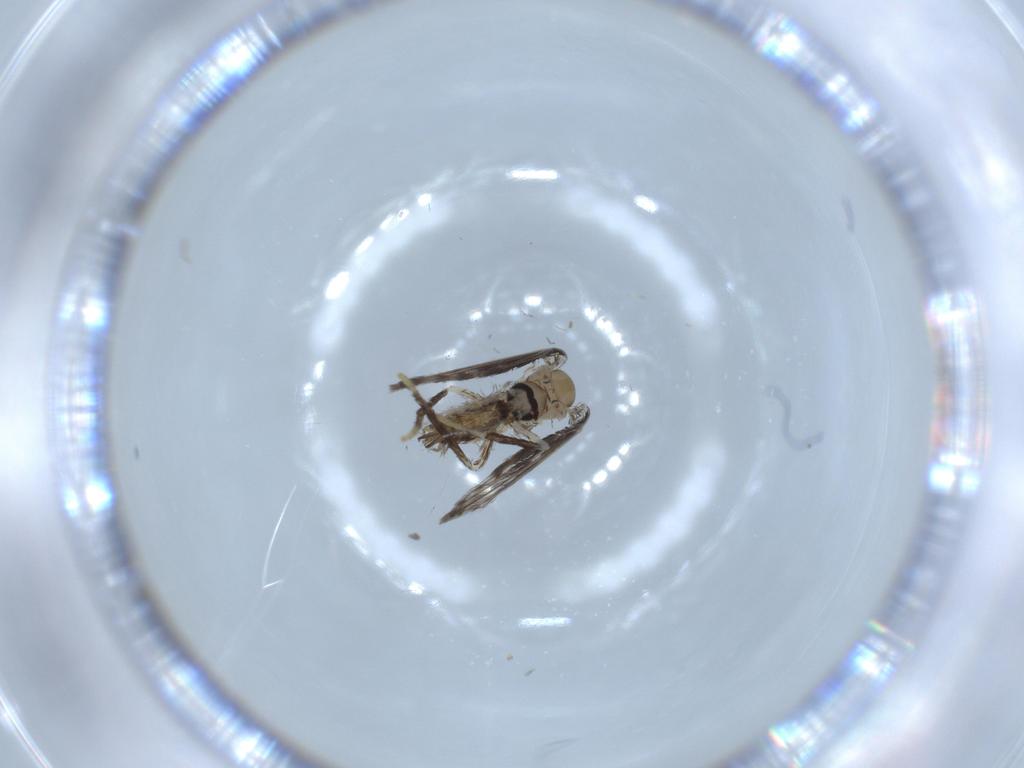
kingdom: Animalia
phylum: Arthropoda
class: Insecta
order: Diptera
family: Psychodidae
